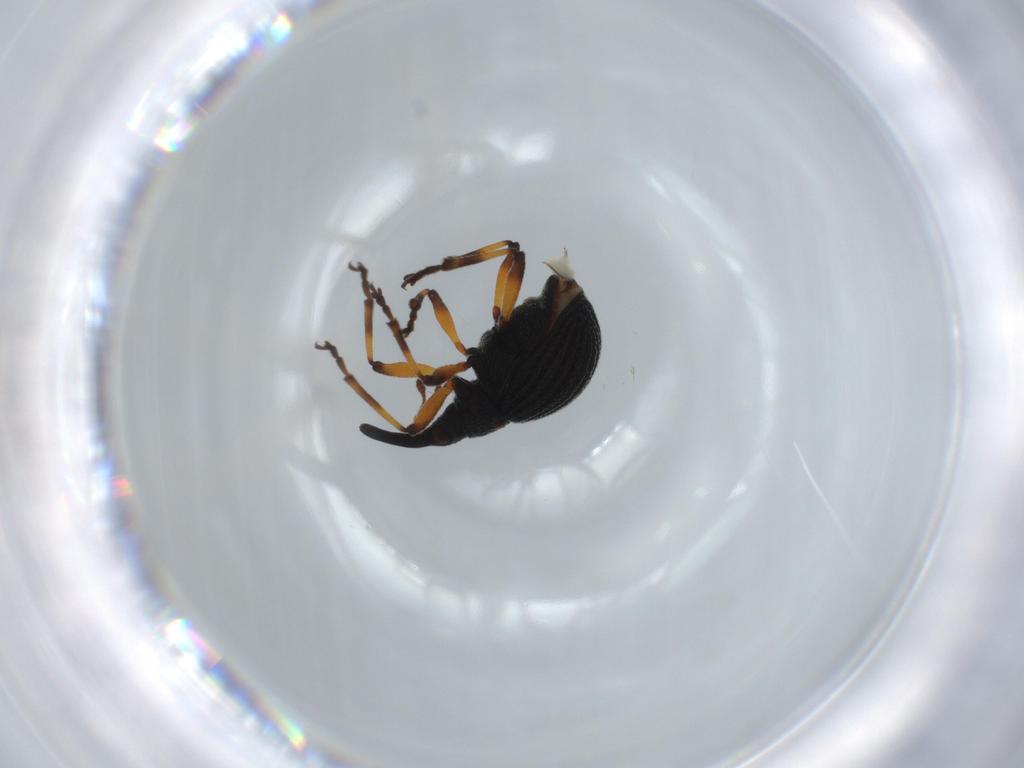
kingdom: Animalia
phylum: Arthropoda
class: Insecta
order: Coleoptera
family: Brentidae
